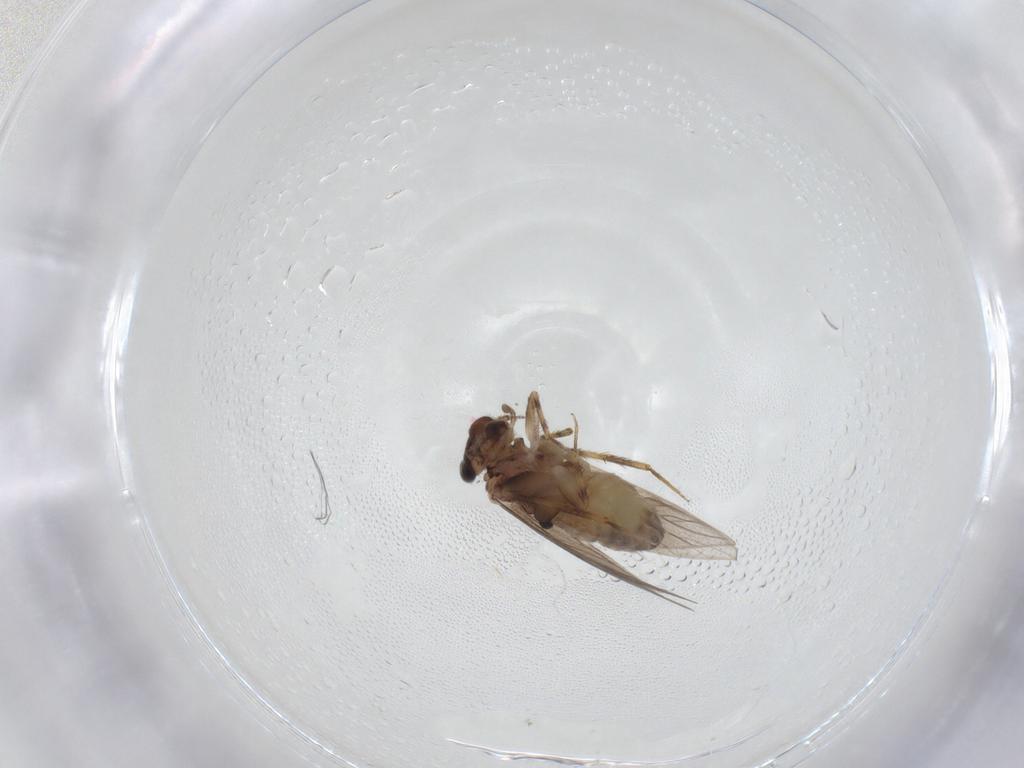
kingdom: Animalia
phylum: Arthropoda
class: Insecta
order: Psocodea
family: Lepidopsocidae
